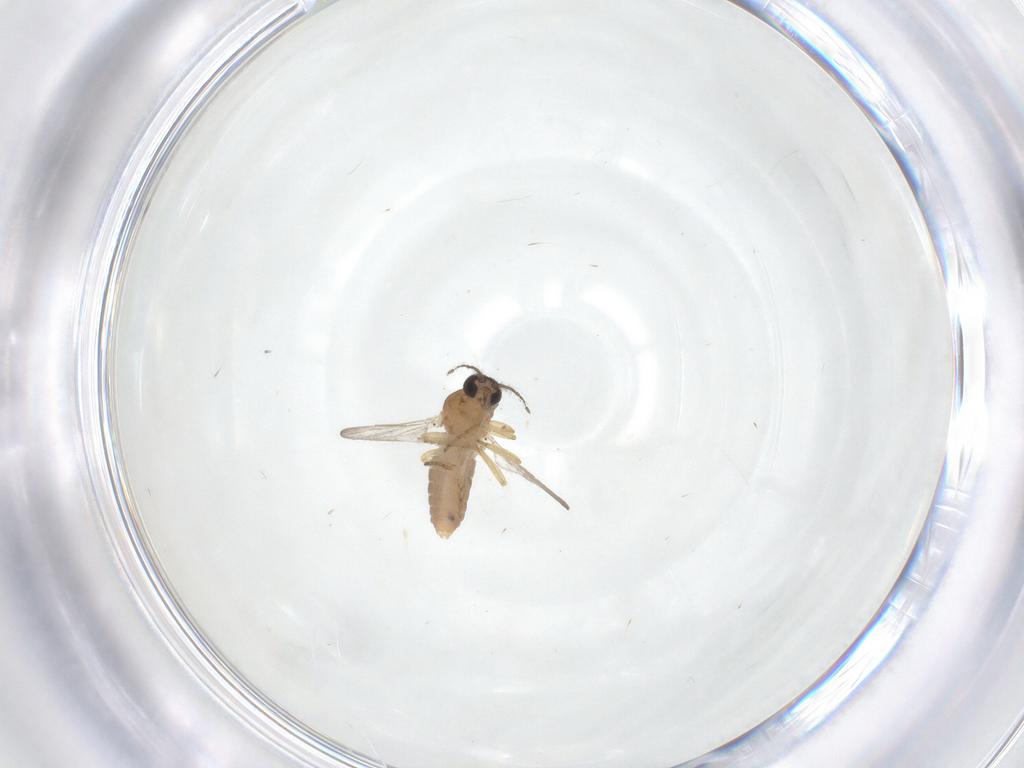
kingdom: Animalia
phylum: Arthropoda
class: Insecta
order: Diptera
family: Ceratopogonidae
